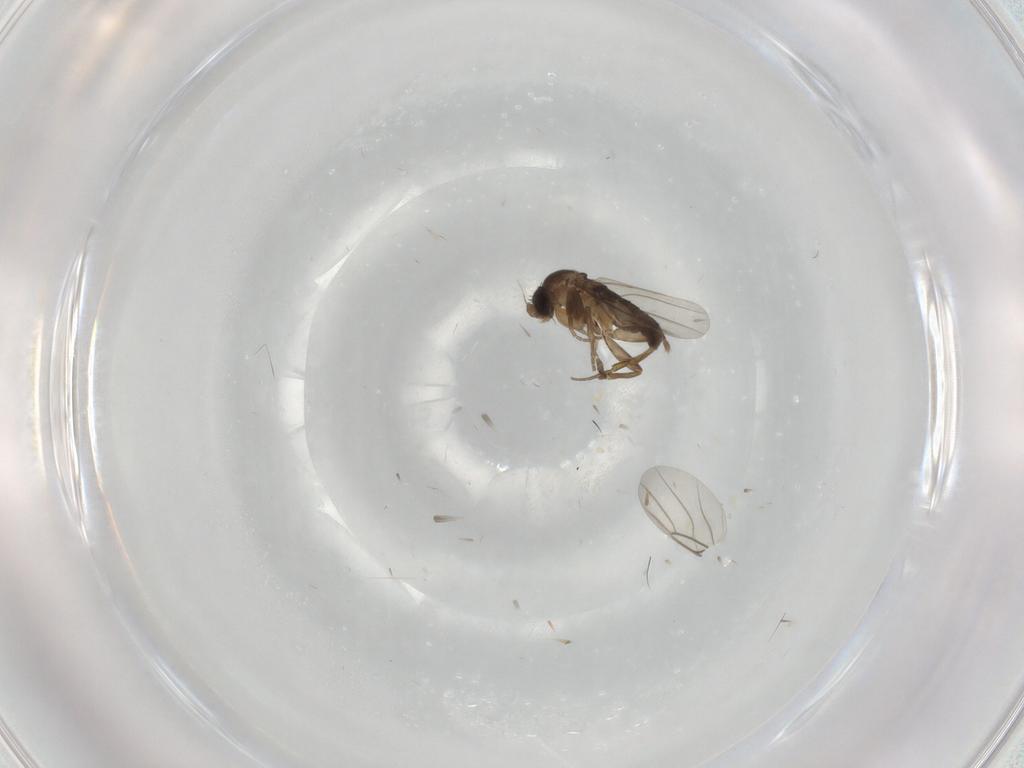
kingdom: Animalia
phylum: Arthropoda
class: Insecta
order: Diptera
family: Phoridae
